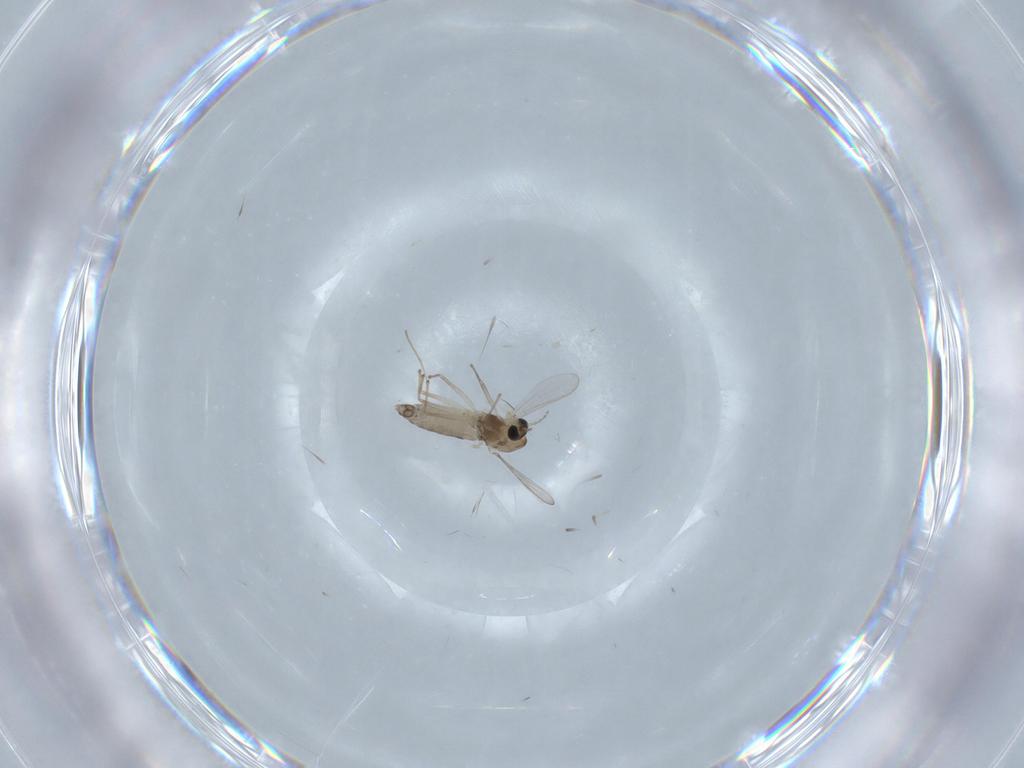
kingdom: Animalia
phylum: Arthropoda
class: Insecta
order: Diptera
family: Chironomidae
